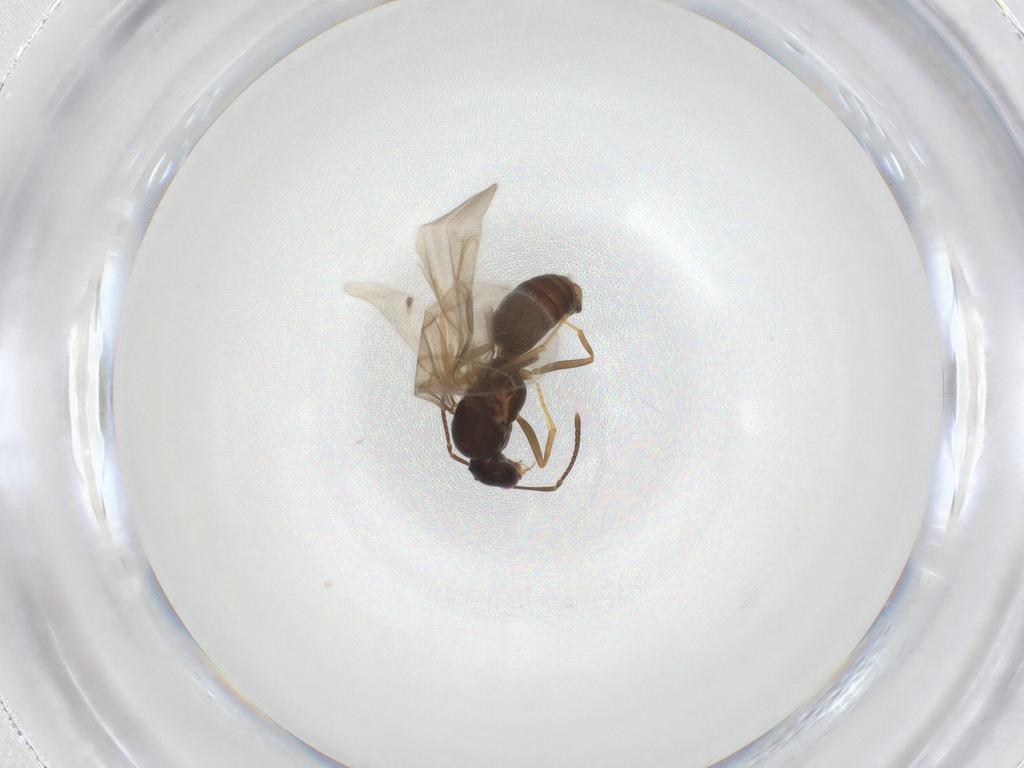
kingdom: Animalia
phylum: Arthropoda
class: Insecta
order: Hymenoptera
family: Formicidae
